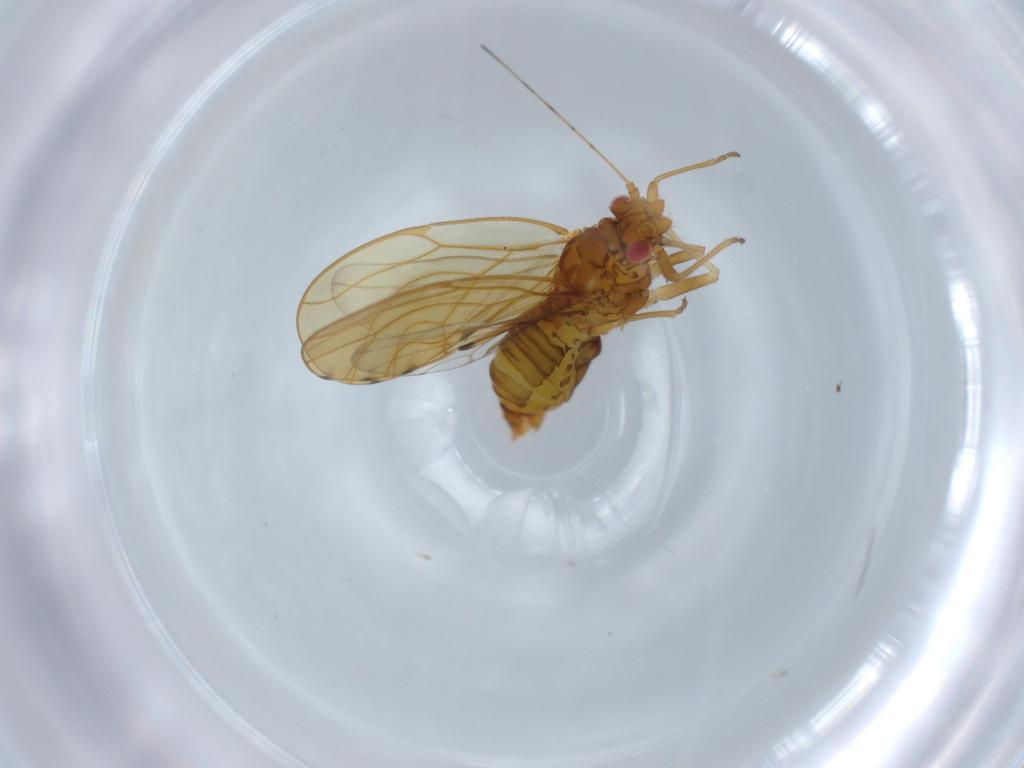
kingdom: Animalia
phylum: Arthropoda
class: Insecta
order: Hemiptera
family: Psylloidea_incertae_sedis
